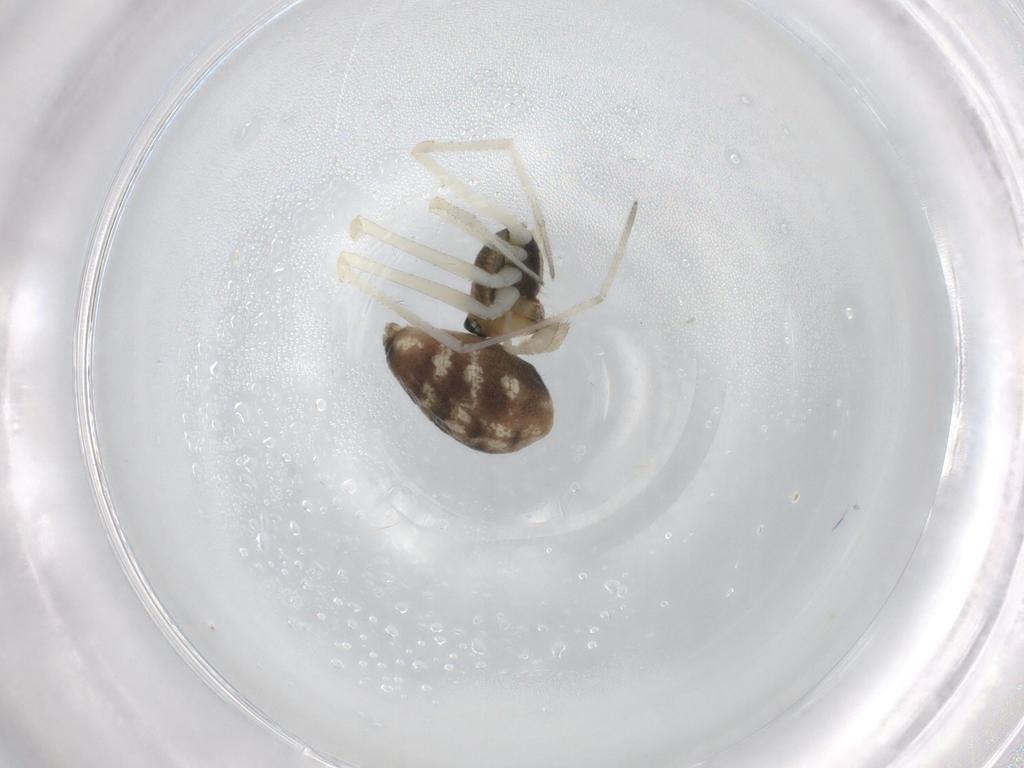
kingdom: Animalia
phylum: Arthropoda
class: Arachnida
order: Araneae
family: Linyphiidae
